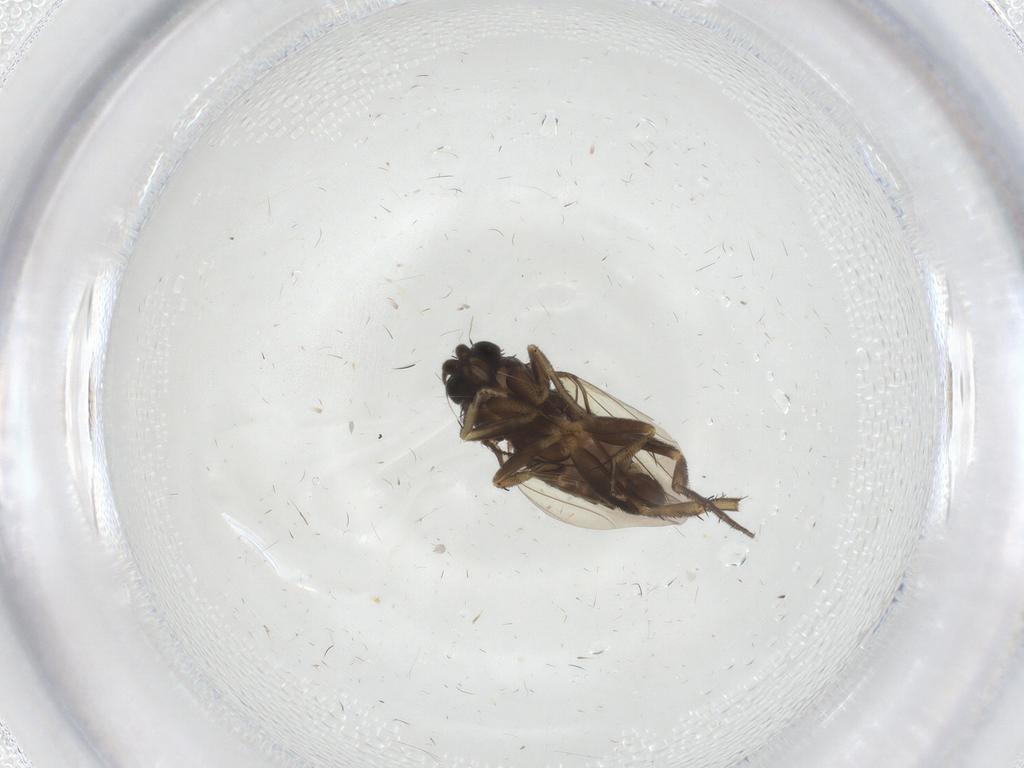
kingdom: Animalia
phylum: Arthropoda
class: Insecta
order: Diptera
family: Phoridae
